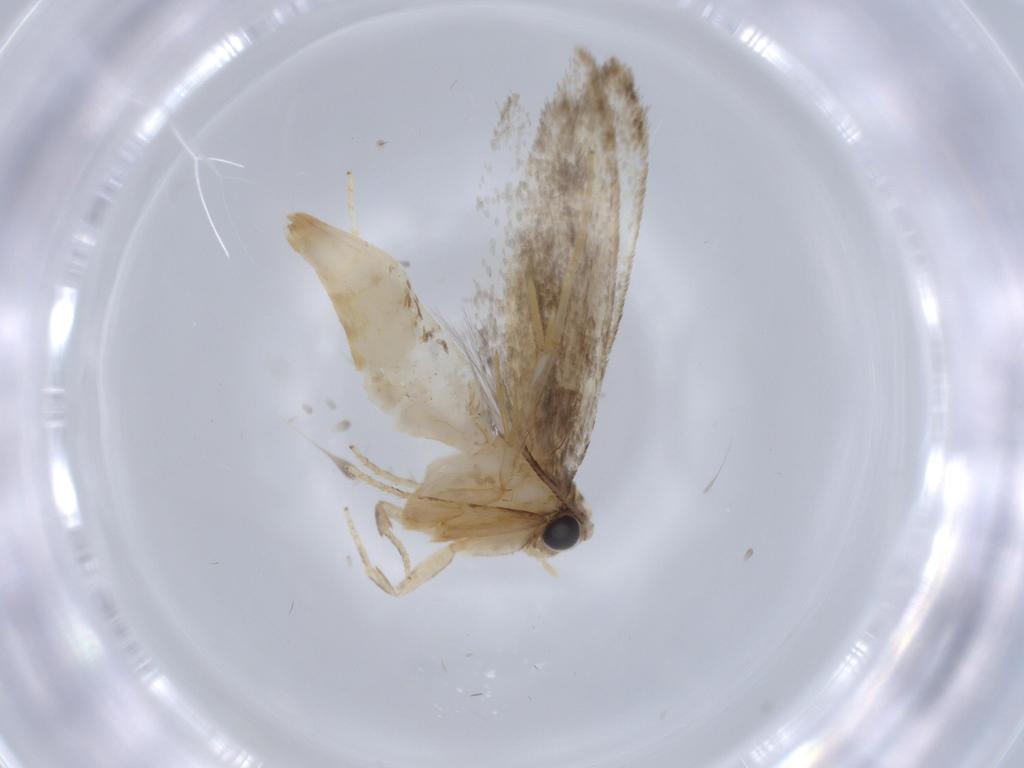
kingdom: Animalia
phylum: Arthropoda
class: Insecta
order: Lepidoptera
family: Tineidae
